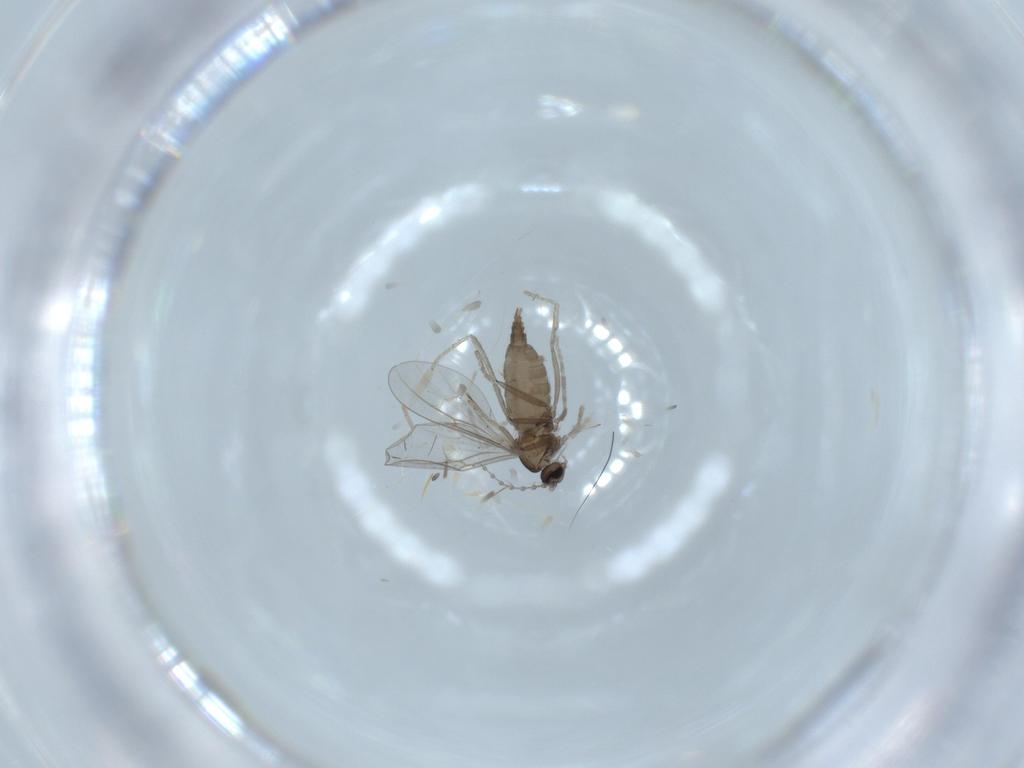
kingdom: Animalia
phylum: Arthropoda
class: Insecta
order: Diptera
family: Cecidomyiidae
